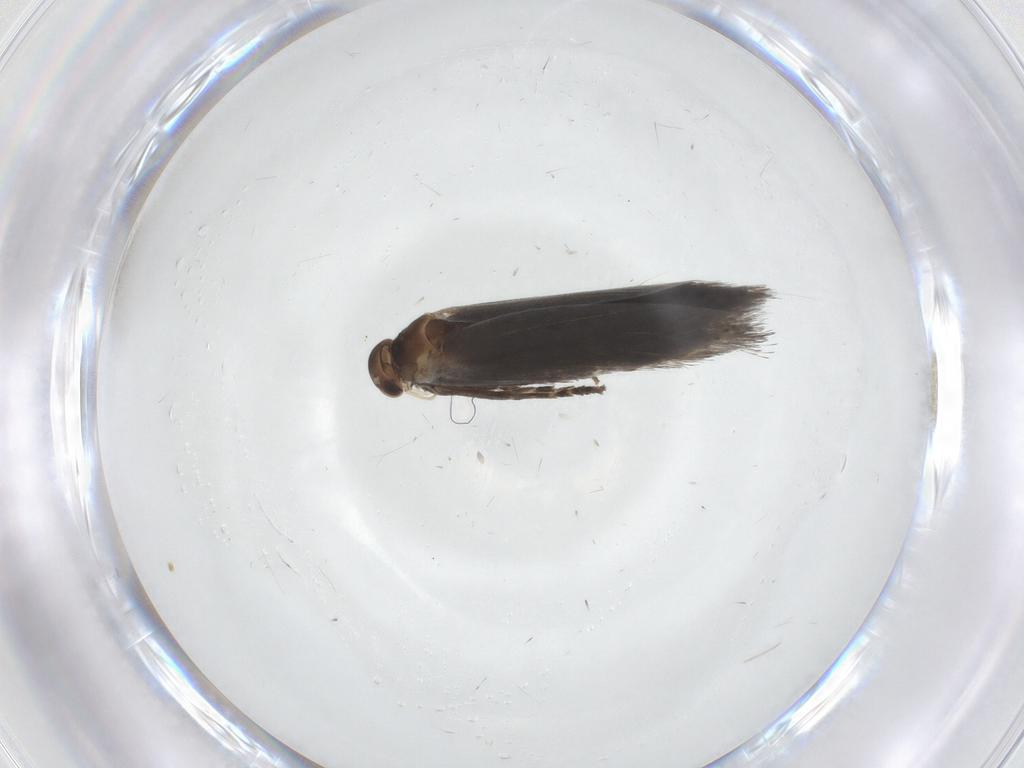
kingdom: Animalia
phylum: Arthropoda
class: Insecta
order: Lepidoptera
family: Elachistidae
